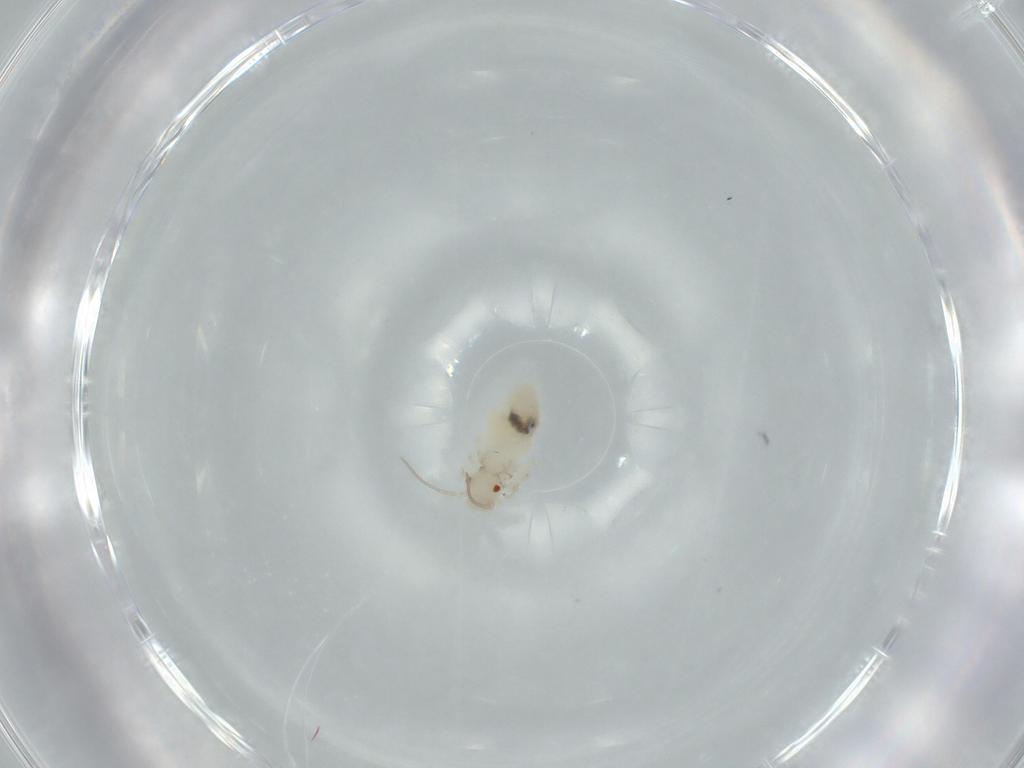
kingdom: Animalia
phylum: Arthropoda
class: Insecta
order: Psocodea
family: Caeciliusidae
